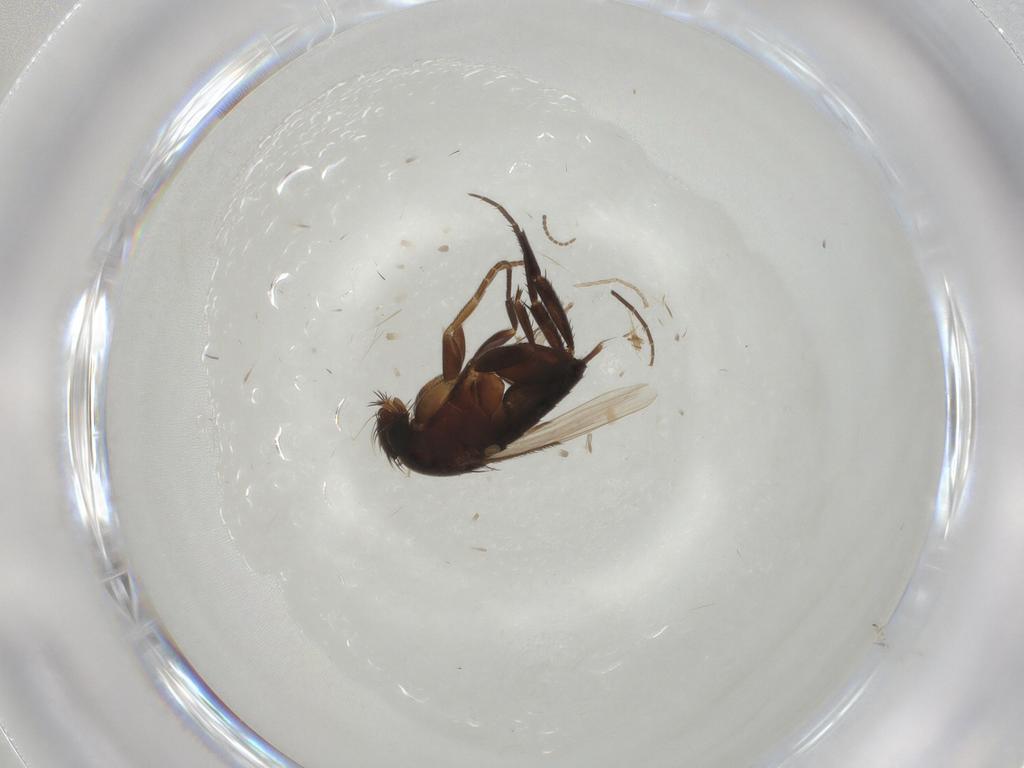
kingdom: Animalia
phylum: Arthropoda
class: Insecta
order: Diptera
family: Phoridae
